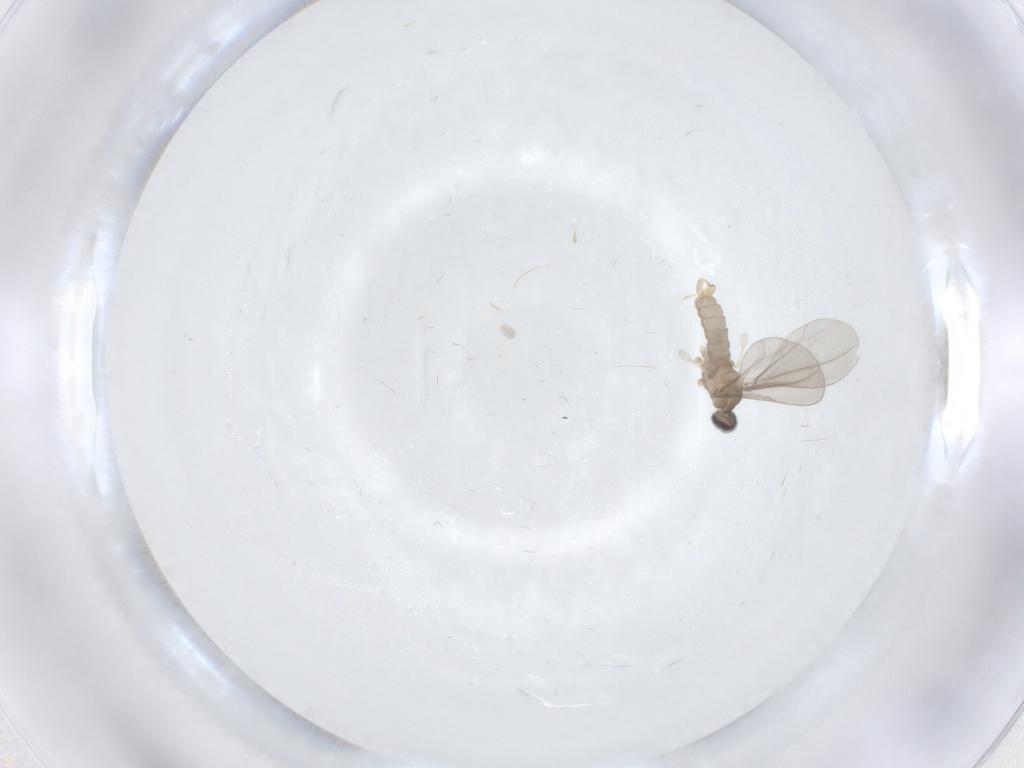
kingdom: Animalia
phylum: Arthropoda
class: Insecta
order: Diptera
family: Cecidomyiidae
